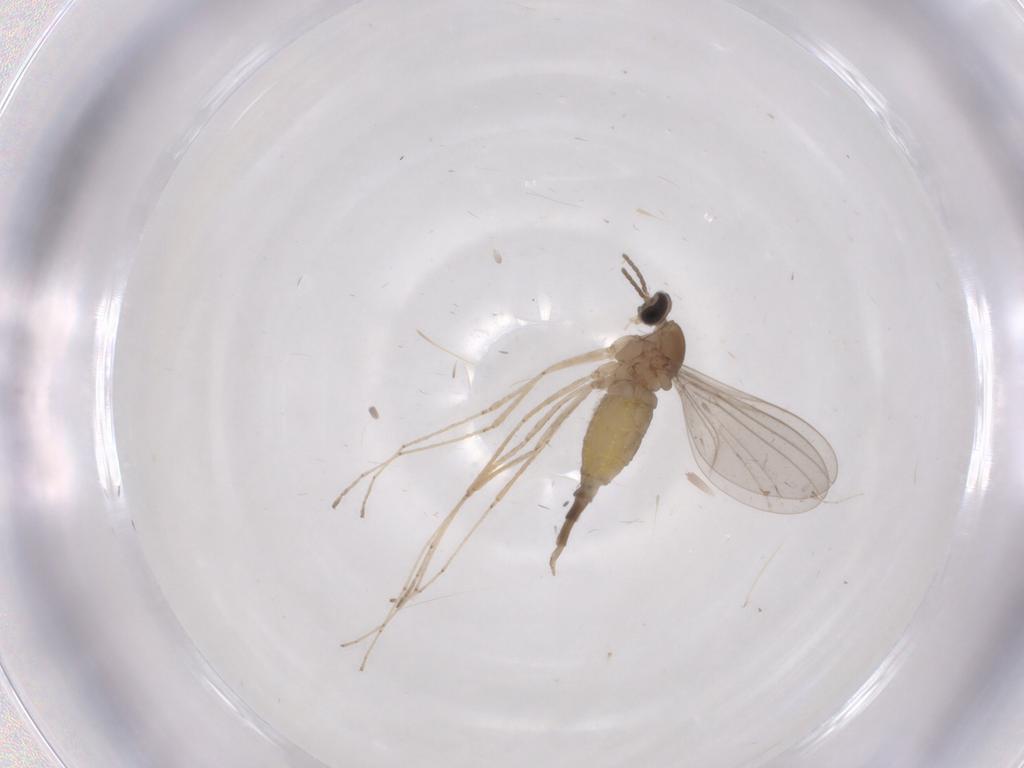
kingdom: Animalia
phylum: Arthropoda
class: Insecta
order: Diptera
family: Cecidomyiidae
